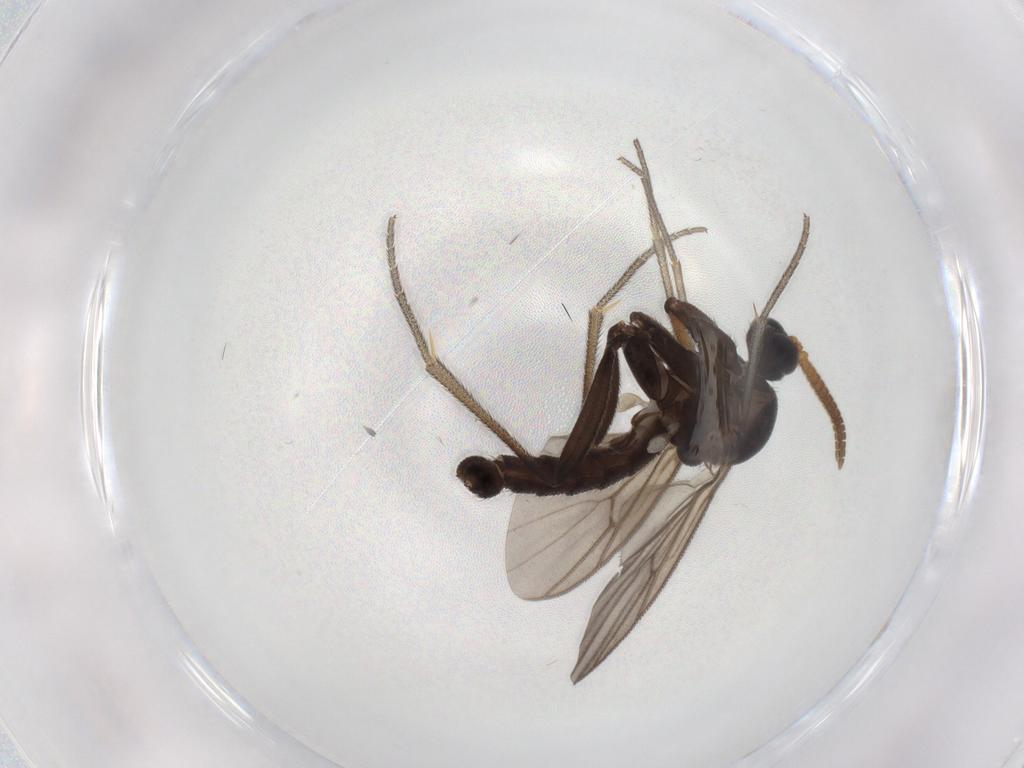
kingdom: Animalia
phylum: Arthropoda
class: Insecta
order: Diptera
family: Mycetophilidae
